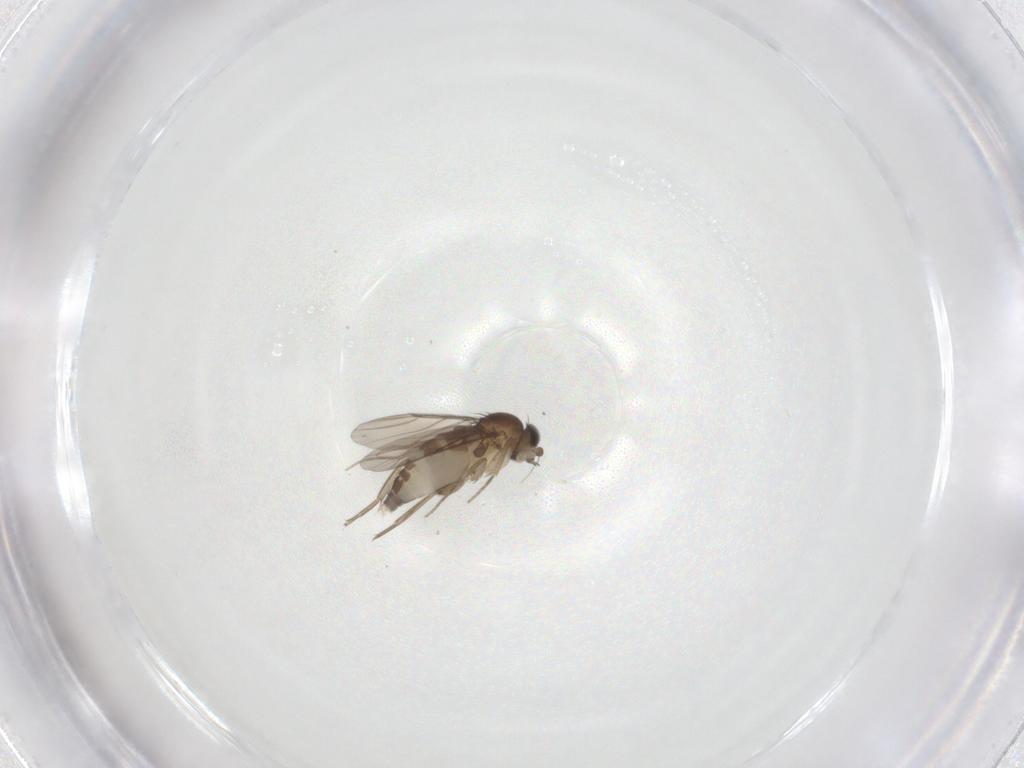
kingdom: Animalia
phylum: Arthropoda
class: Insecta
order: Diptera
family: Phoridae
